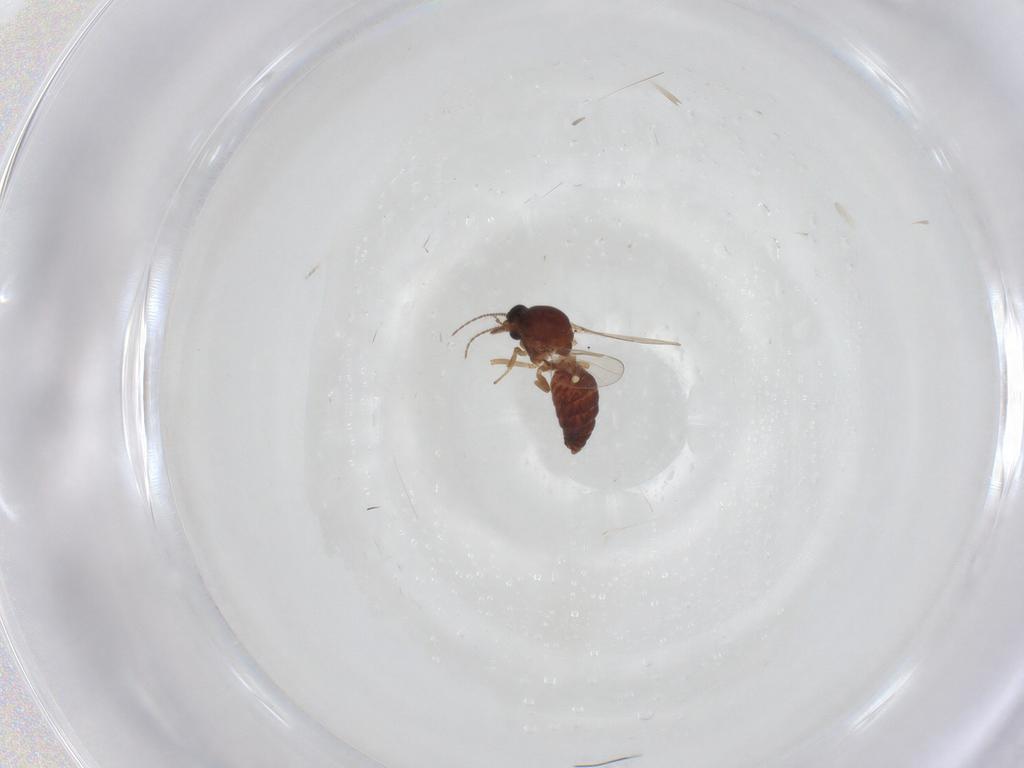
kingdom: Animalia
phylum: Arthropoda
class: Insecta
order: Diptera
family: Ceratopogonidae
